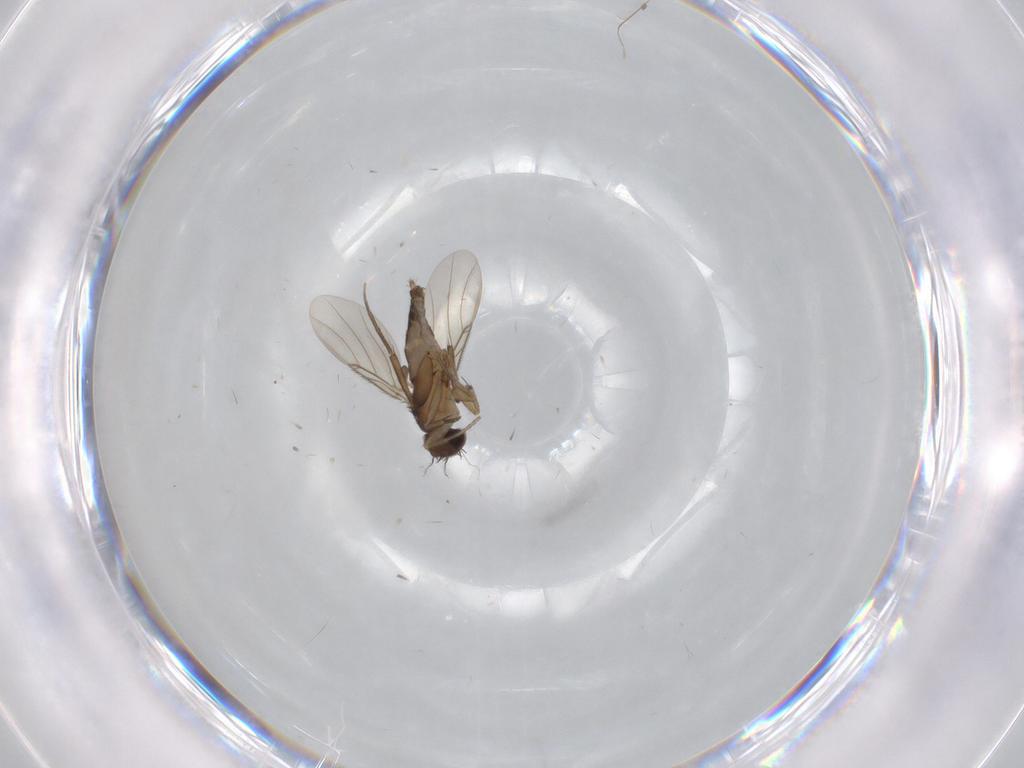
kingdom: Animalia
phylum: Arthropoda
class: Insecta
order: Diptera
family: Phoridae
